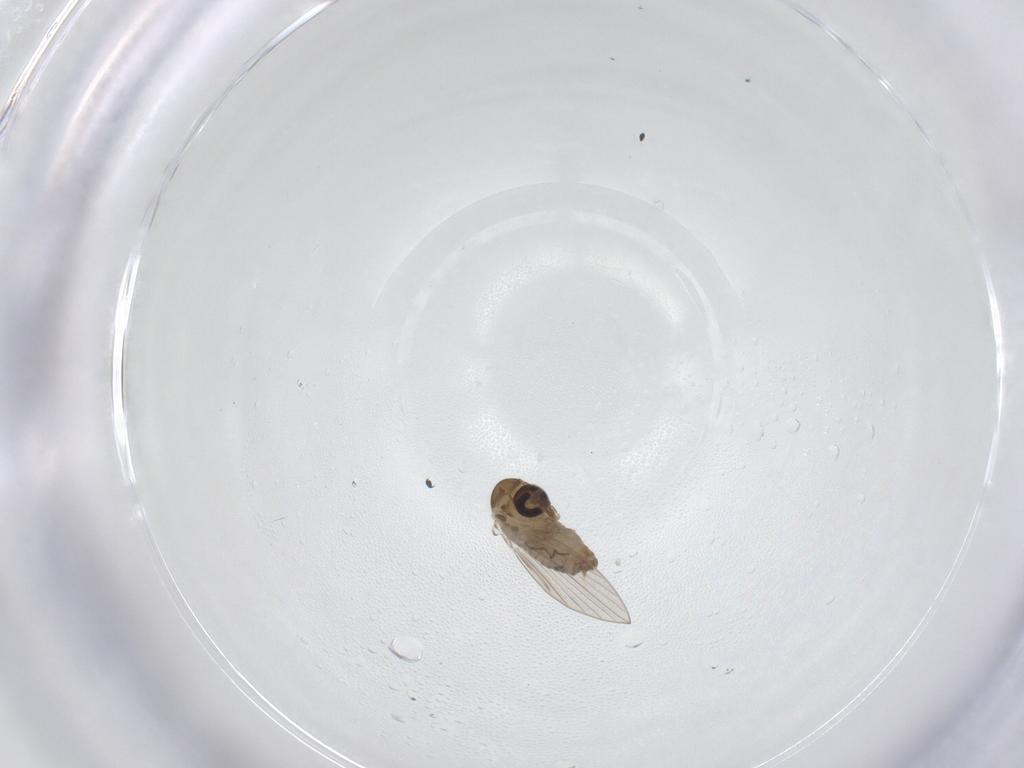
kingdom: Animalia
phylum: Arthropoda
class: Insecta
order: Diptera
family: Psychodidae
